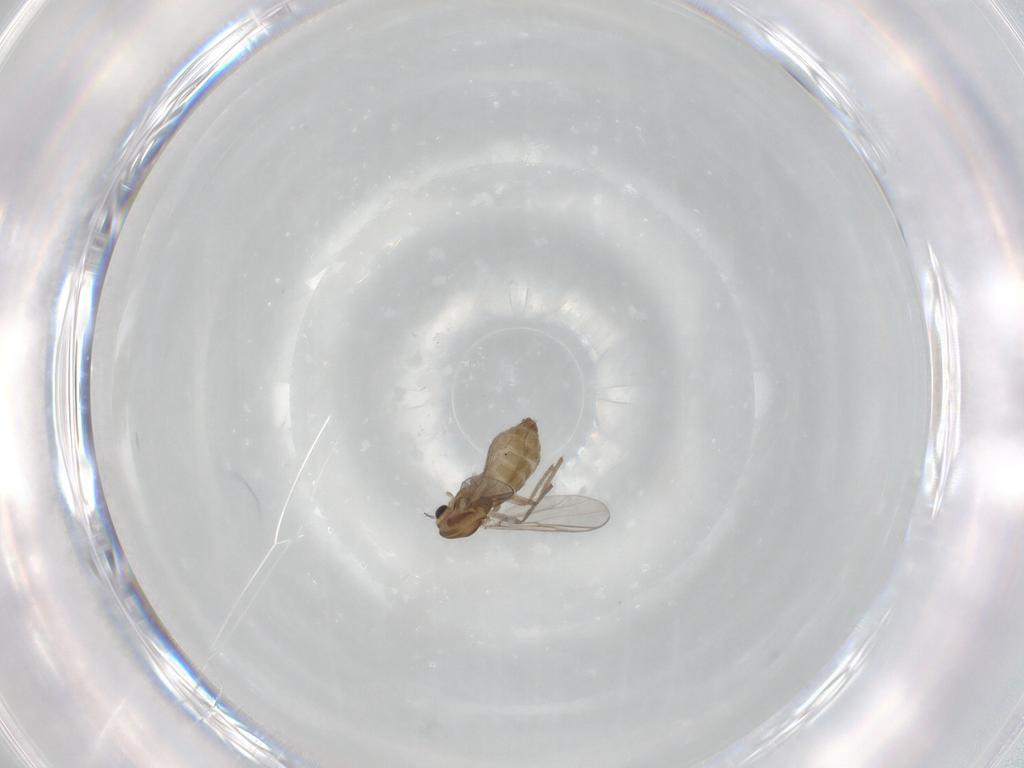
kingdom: Animalia
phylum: Arthropoda
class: Insecta
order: Diptera
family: Chironomidae
